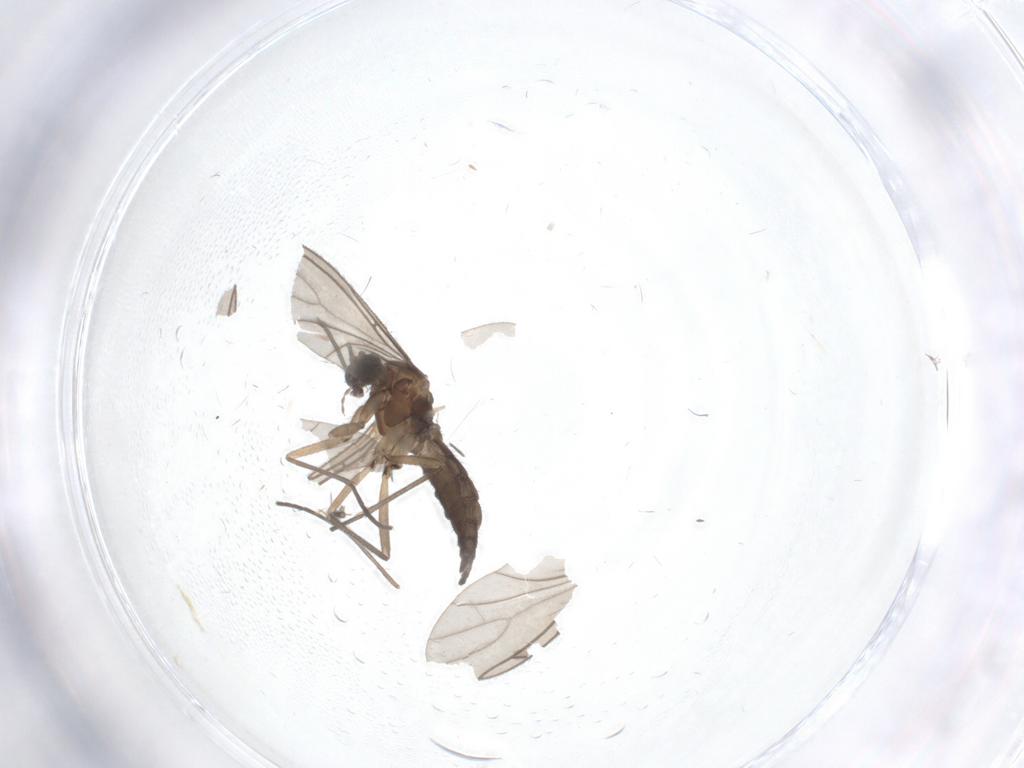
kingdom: Animalia
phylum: Arthropoda
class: Insecta
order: Diptera
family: Sciaridae
